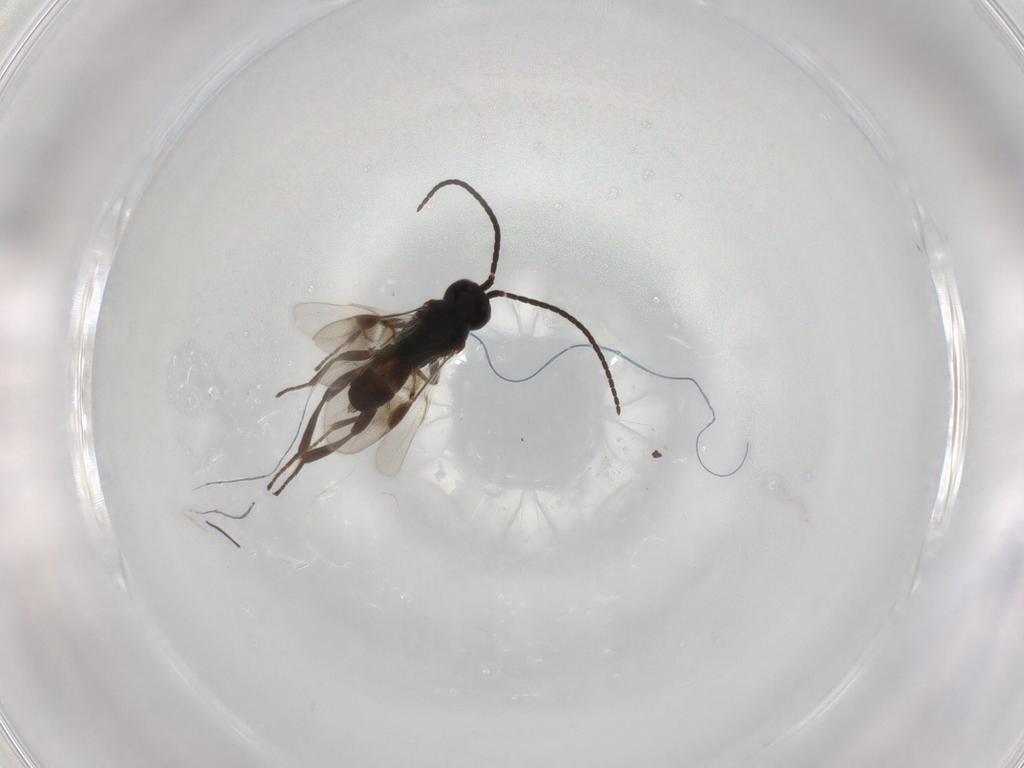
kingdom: Animalia
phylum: Arthropoda
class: Insecta
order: Hymenoptera
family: Braconidae
